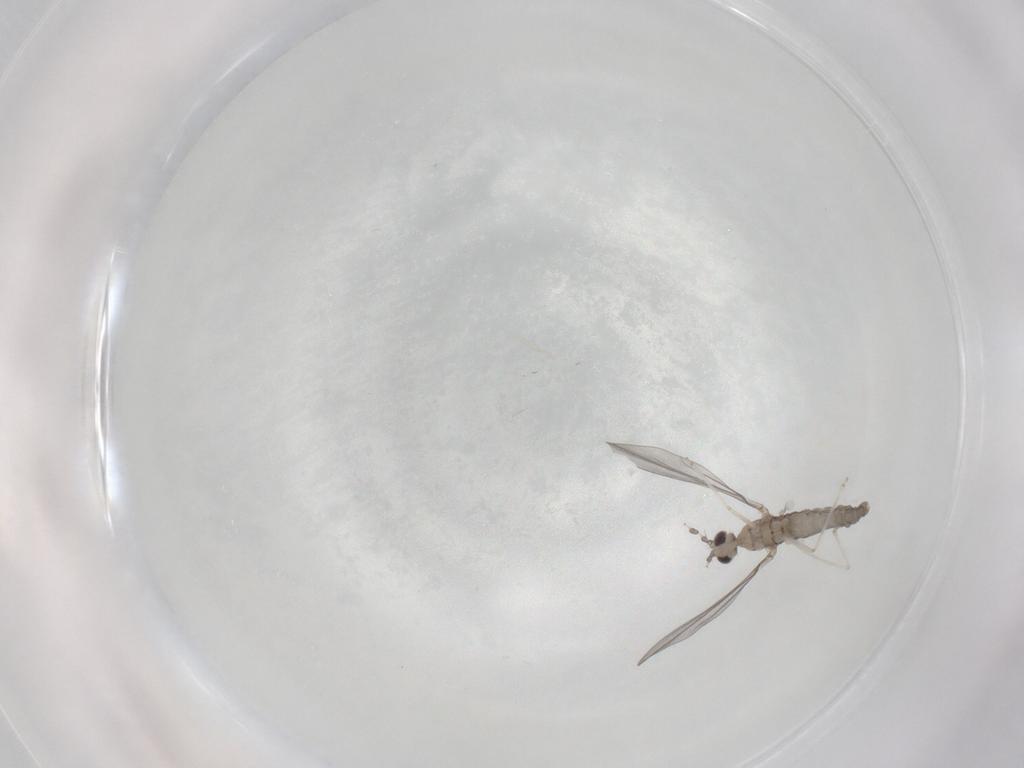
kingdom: Animalia
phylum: Arthropoda
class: Insecta
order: Diptera
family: Cecidomyiidae
